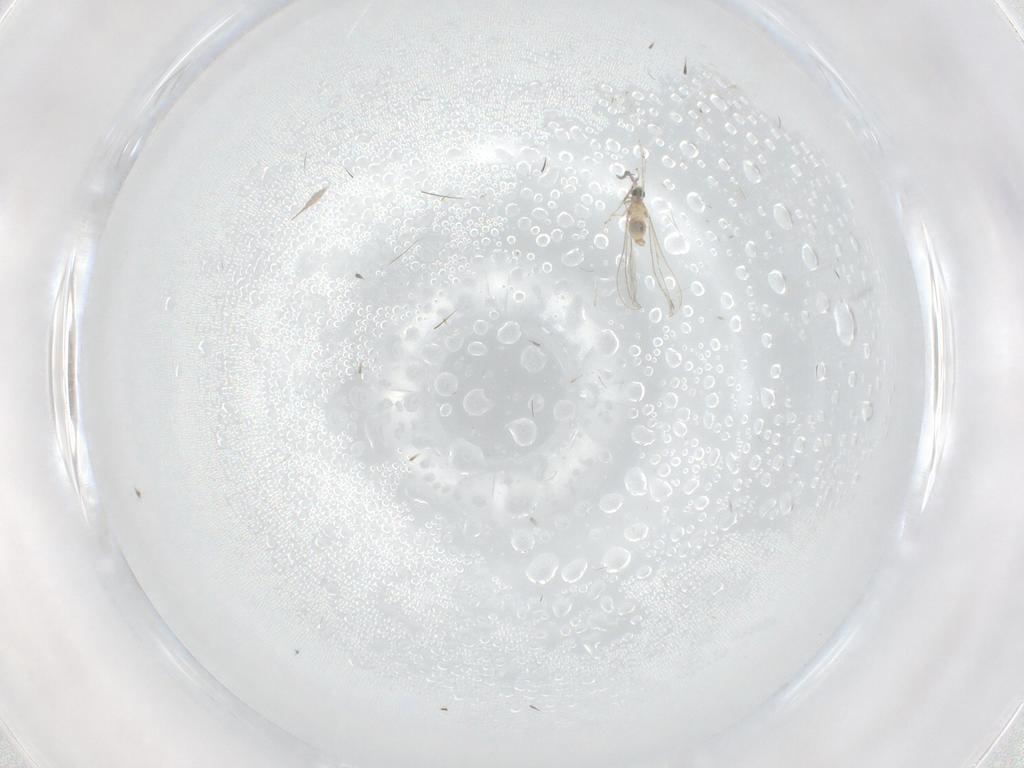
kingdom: Animalia
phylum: Arthropoda
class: Insecta
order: Diptera
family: Cecidomyiidae
